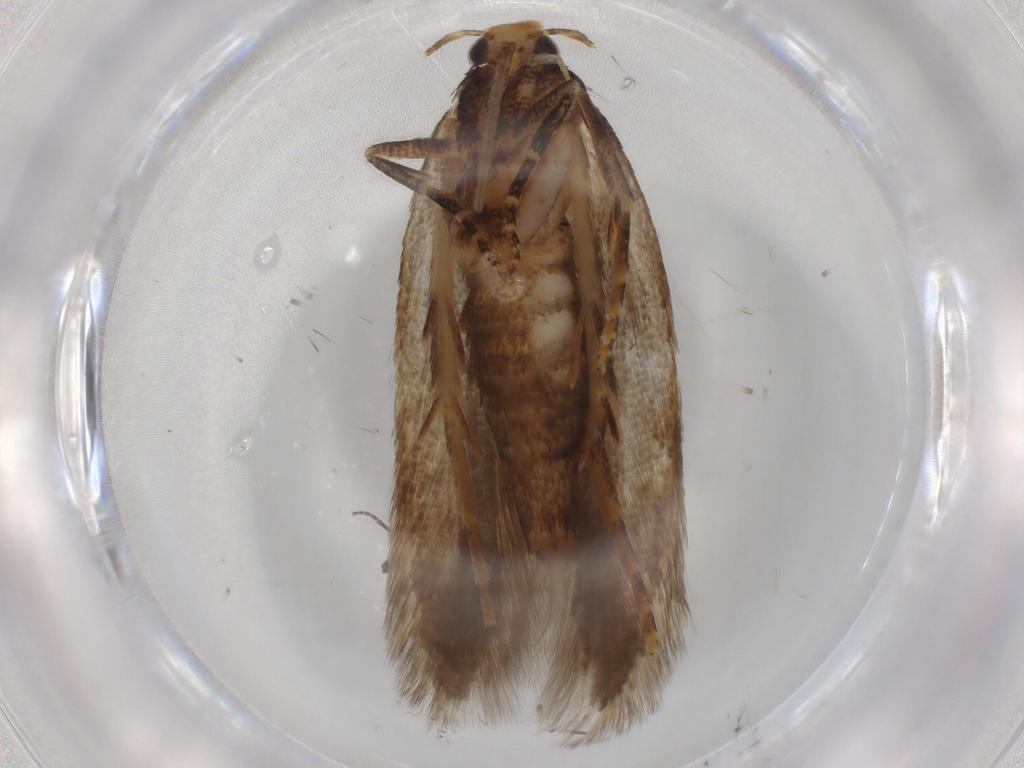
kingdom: Animalia
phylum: Arthropoda
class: Insecta
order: Lepidoptera
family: Gelechiidae
